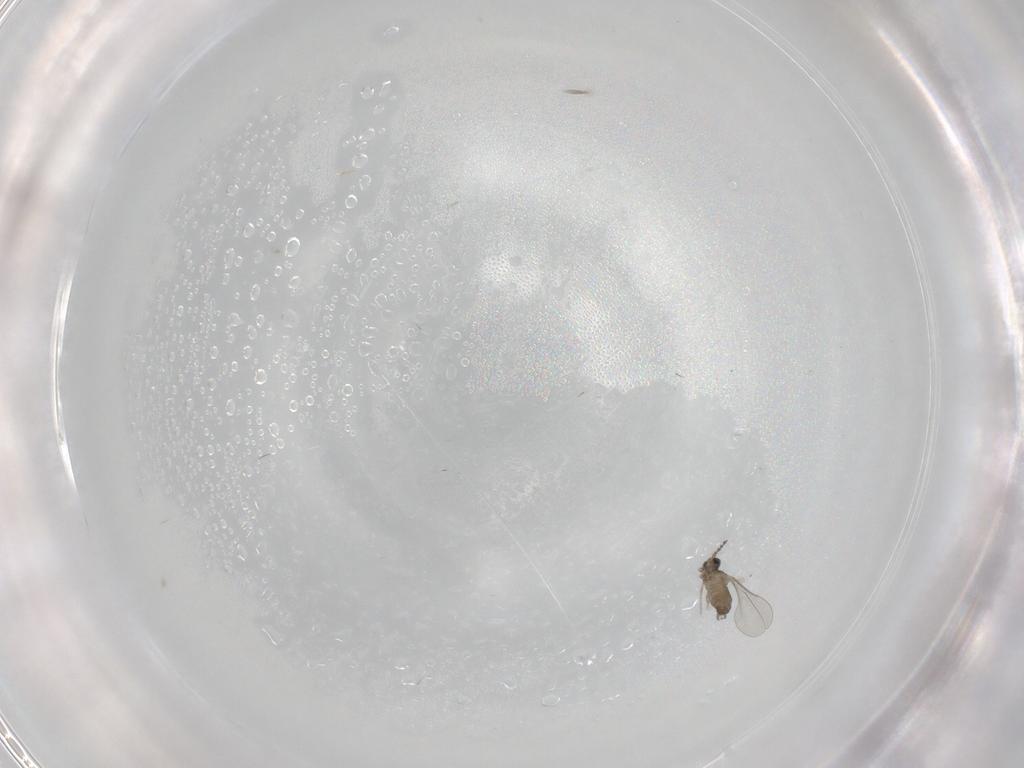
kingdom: Animalia
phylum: Arthropoda
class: Insecta
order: Diptera
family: Cecidomyiidae
